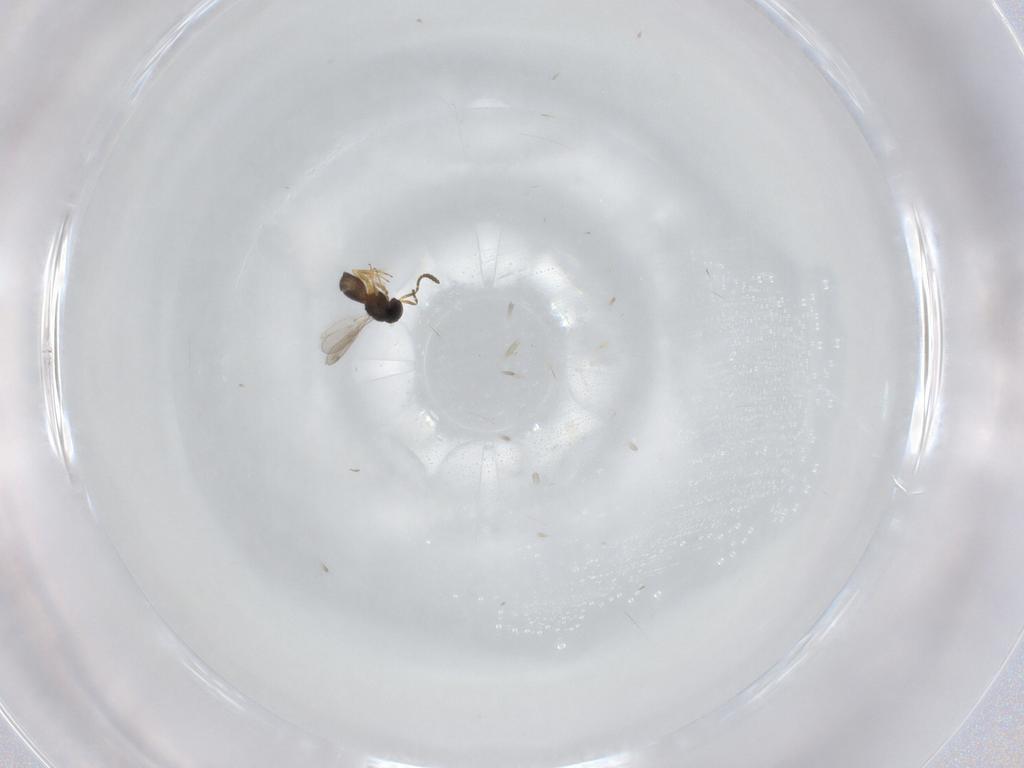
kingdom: Animalia
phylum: Arthropoda
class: Insecta
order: Hymenoptera
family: Scelionidae
